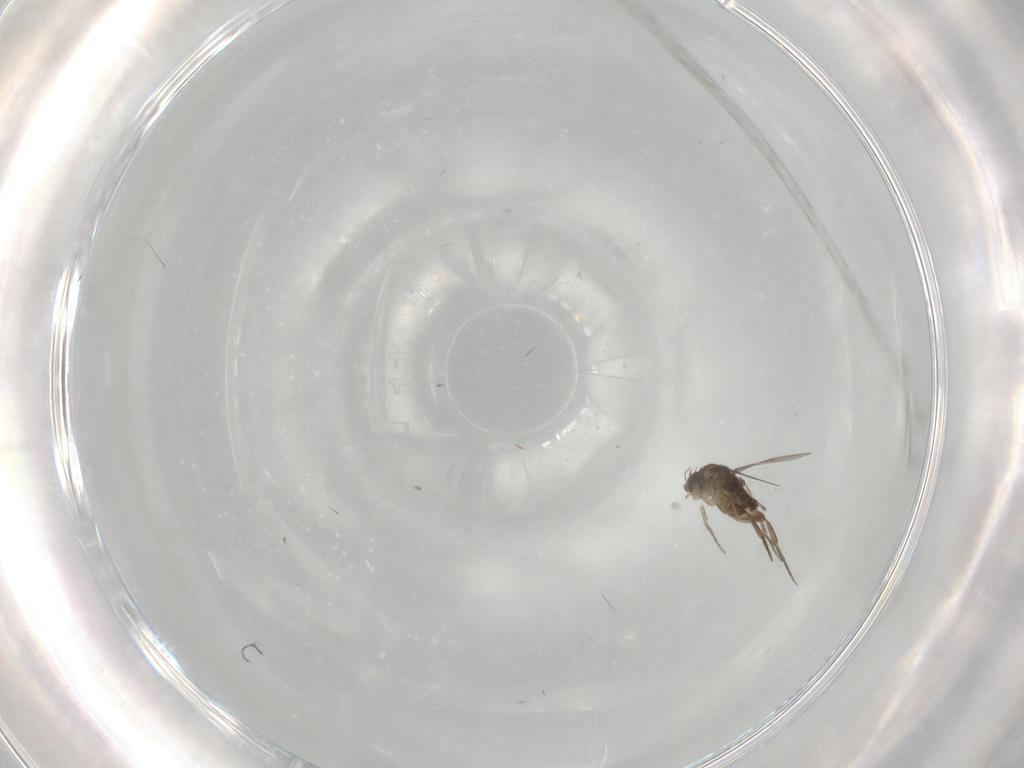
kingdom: Animalia
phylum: Arthropoda
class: Insecta
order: Diptera
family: Phoridae
